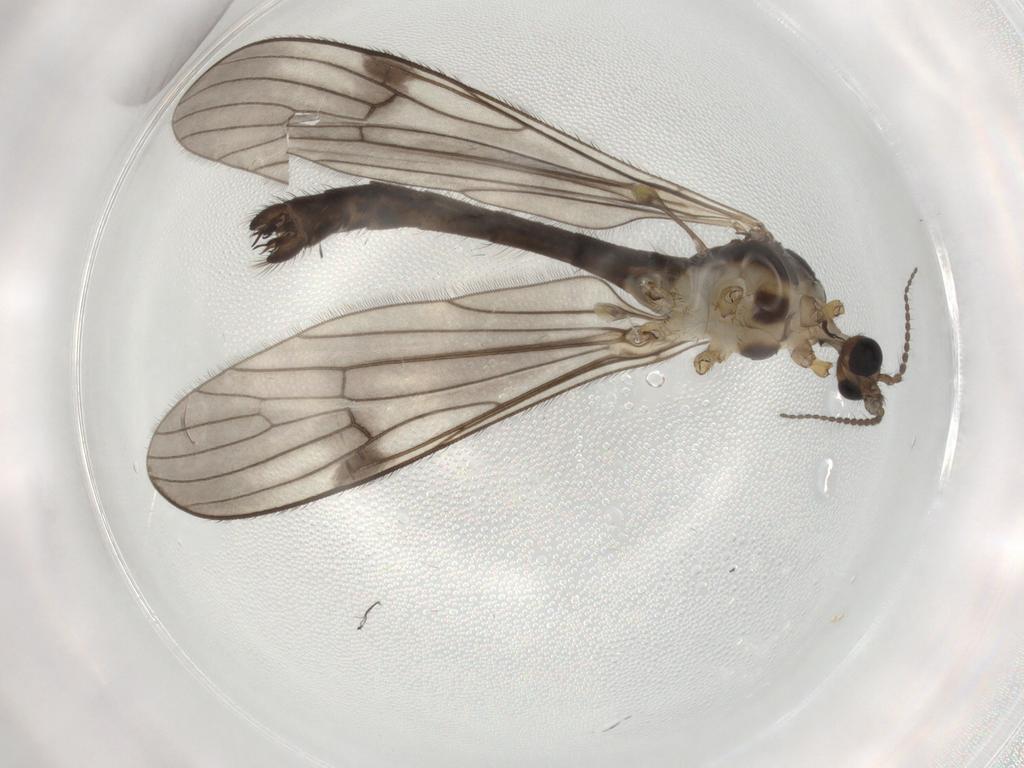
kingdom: Animalia
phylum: Arthropoda
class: Insecta
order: Diptera
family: Limoniidae
